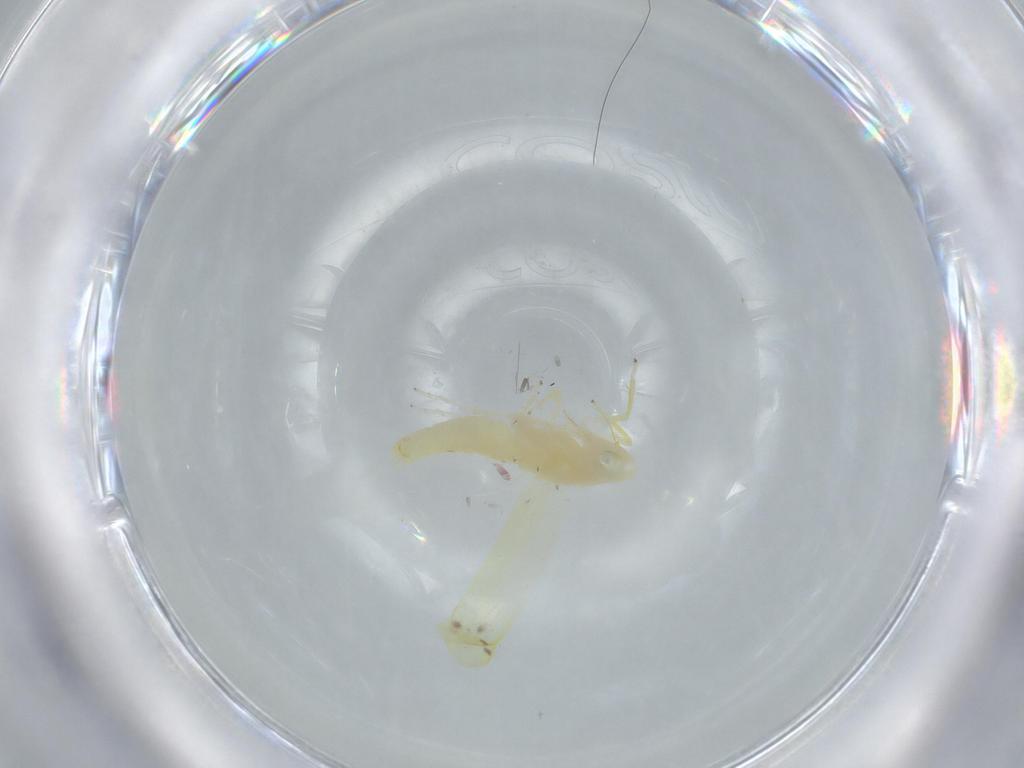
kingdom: Animalia
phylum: Arthropoda
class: Insecta
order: Hemiptera
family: Cicadellidae
